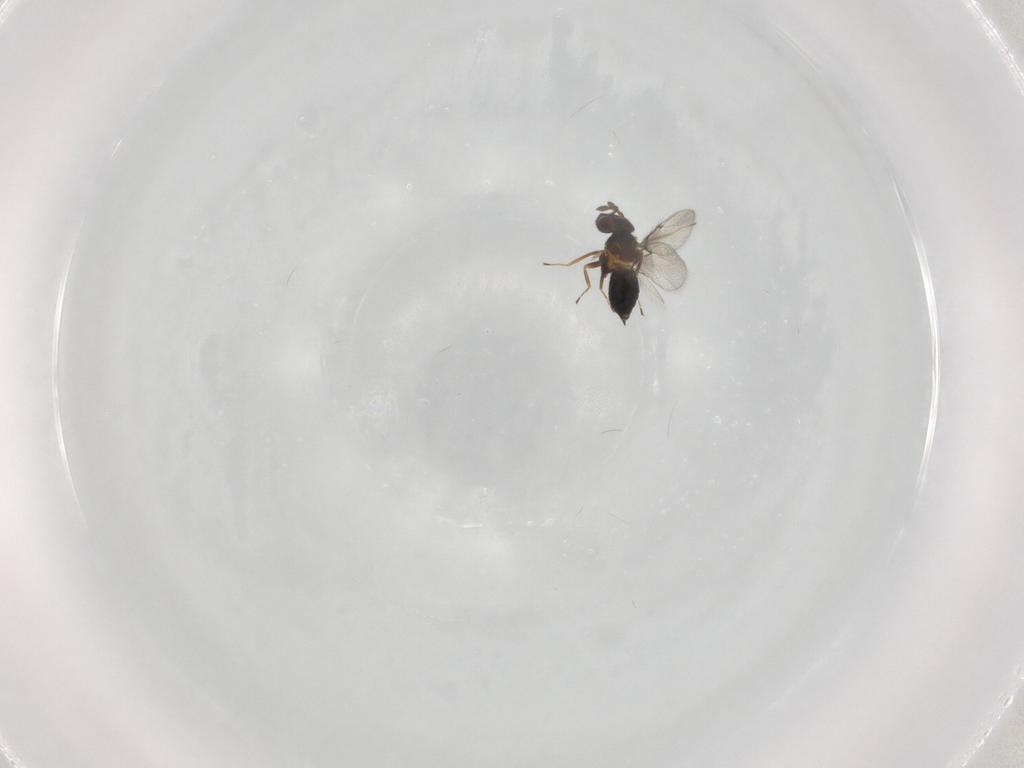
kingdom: Animalia
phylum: Arthropoda
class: Insecta
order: Hymenoptera
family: Trichogrammatidae
